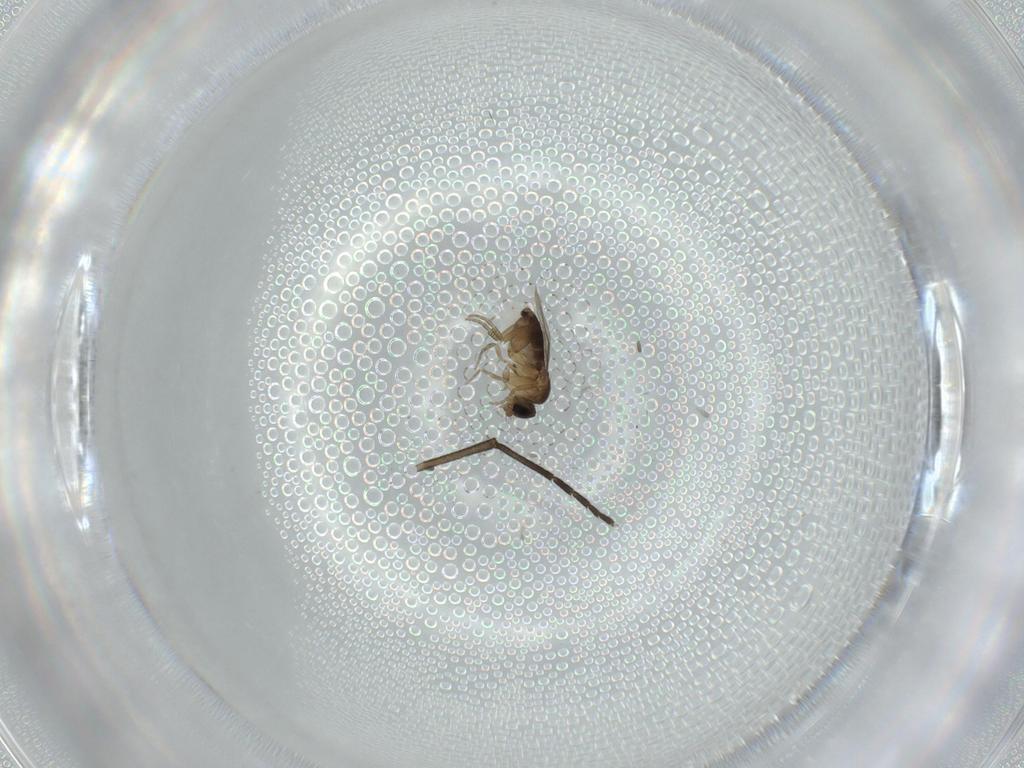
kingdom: Animalia
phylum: Arthropoda
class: Insecta
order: Diptera
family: Phoridae
